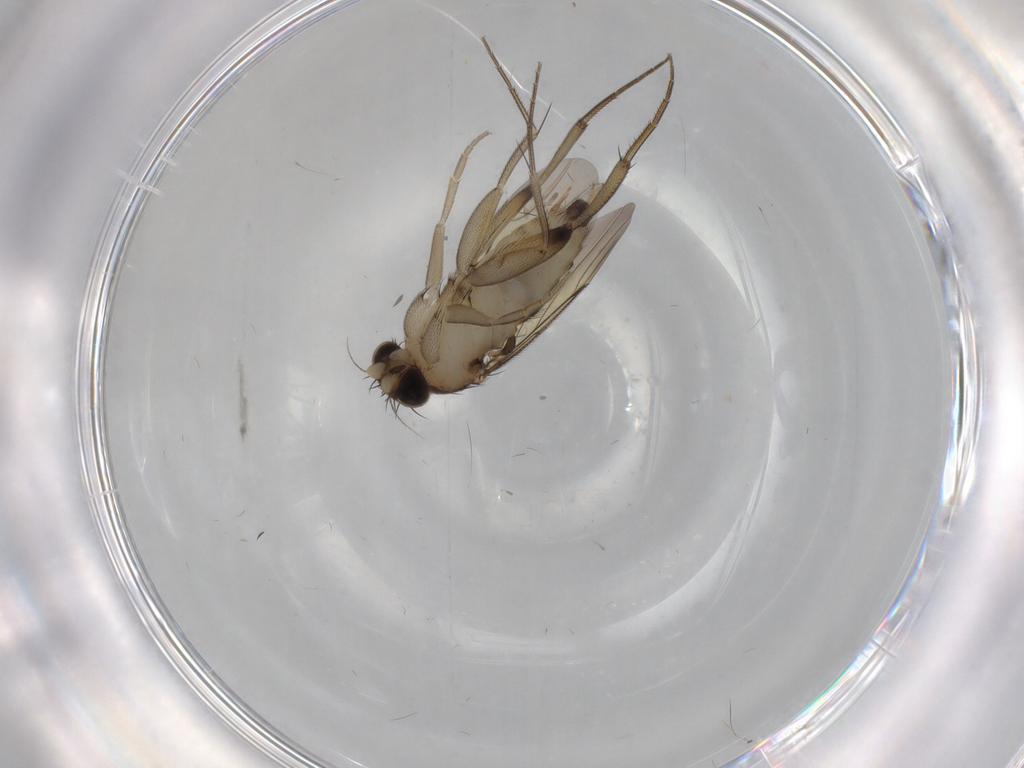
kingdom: Animalia
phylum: Arthropoda
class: Insecta
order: Diptera
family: Phoridae
